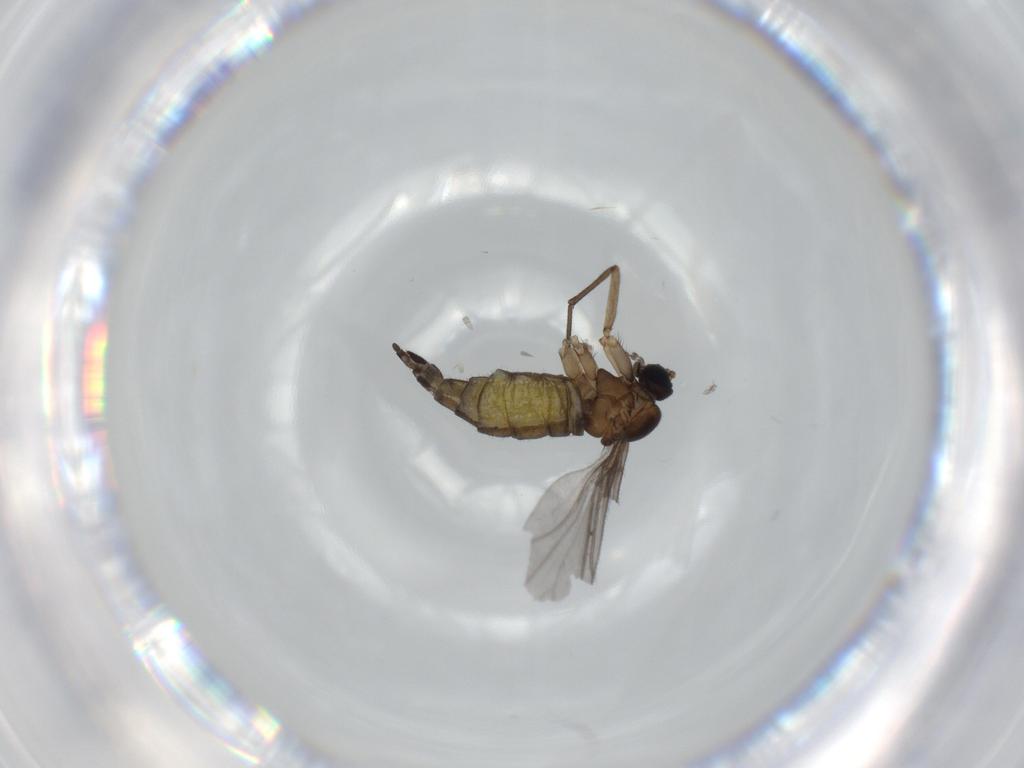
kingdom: Animalia
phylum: Arthropoda
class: Insecta
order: Diptera
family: Sciaridae
